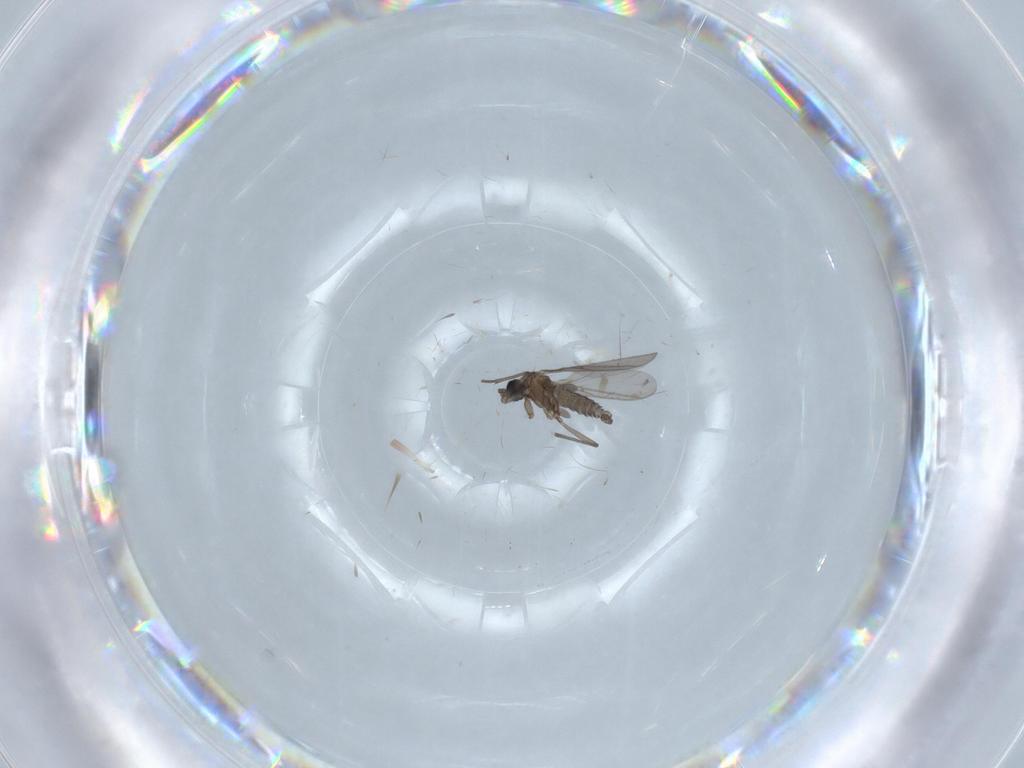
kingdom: Animalia
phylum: Arthropoda
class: Insecta
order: Diptera
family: Sciaridae
